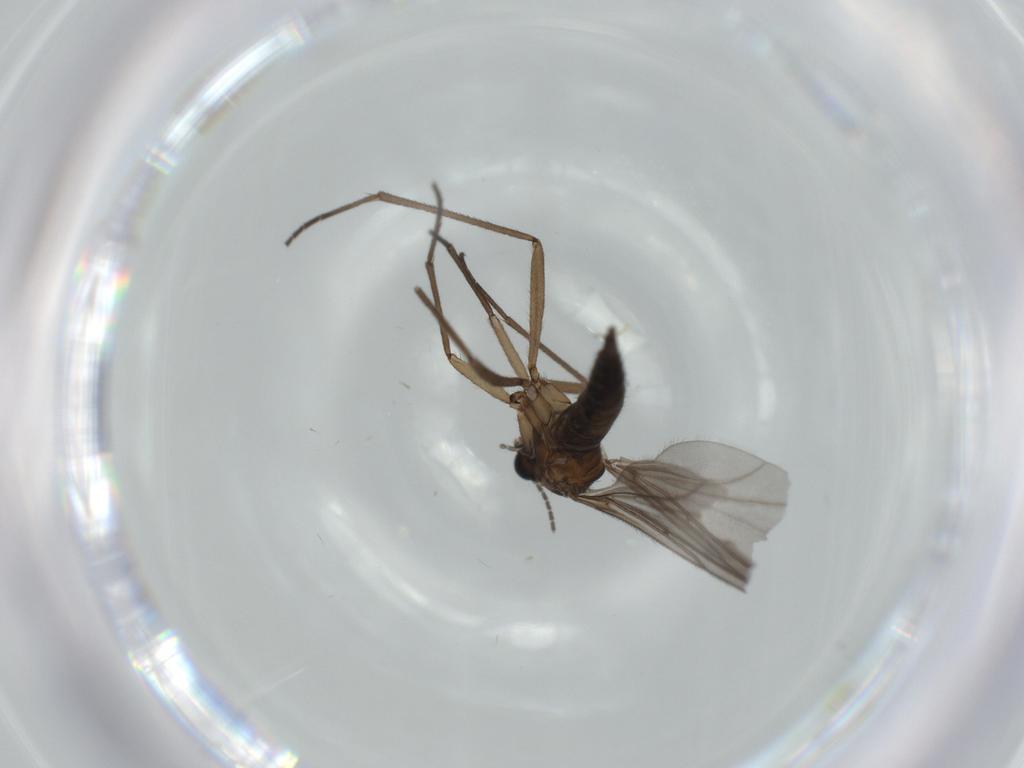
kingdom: Animalia
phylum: Arthropoda
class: Insecta
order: Diptera
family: Sciaridae
